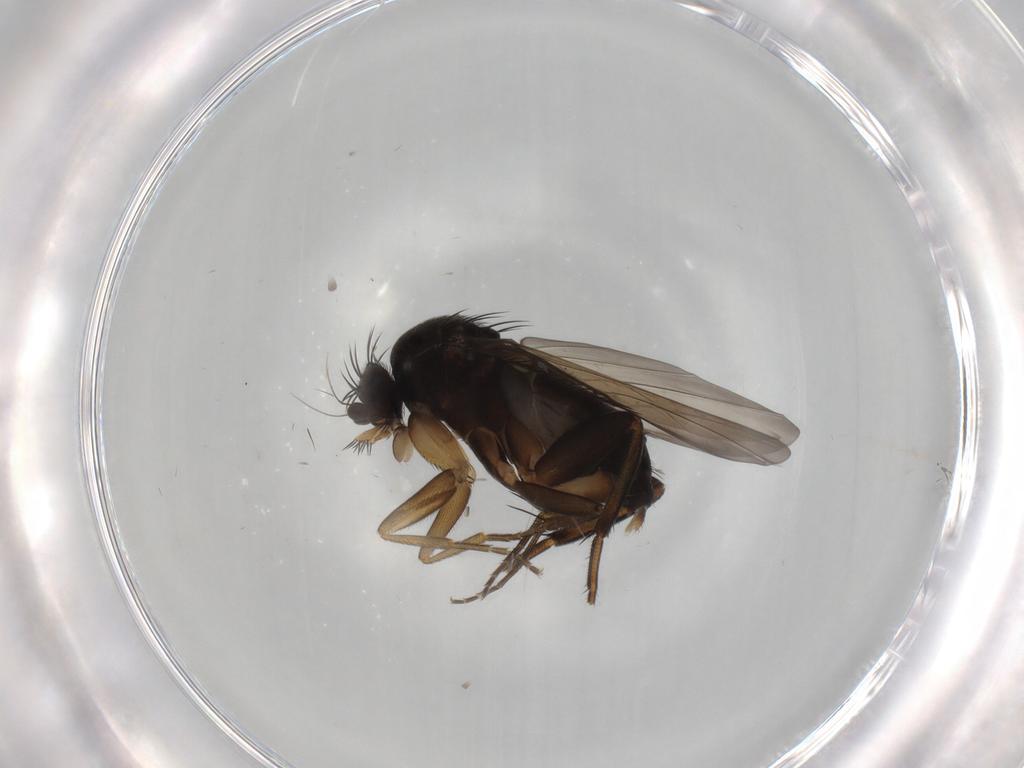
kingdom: Animalia
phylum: Arthropoda
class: Insecta
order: Diptera
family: Phoridae
